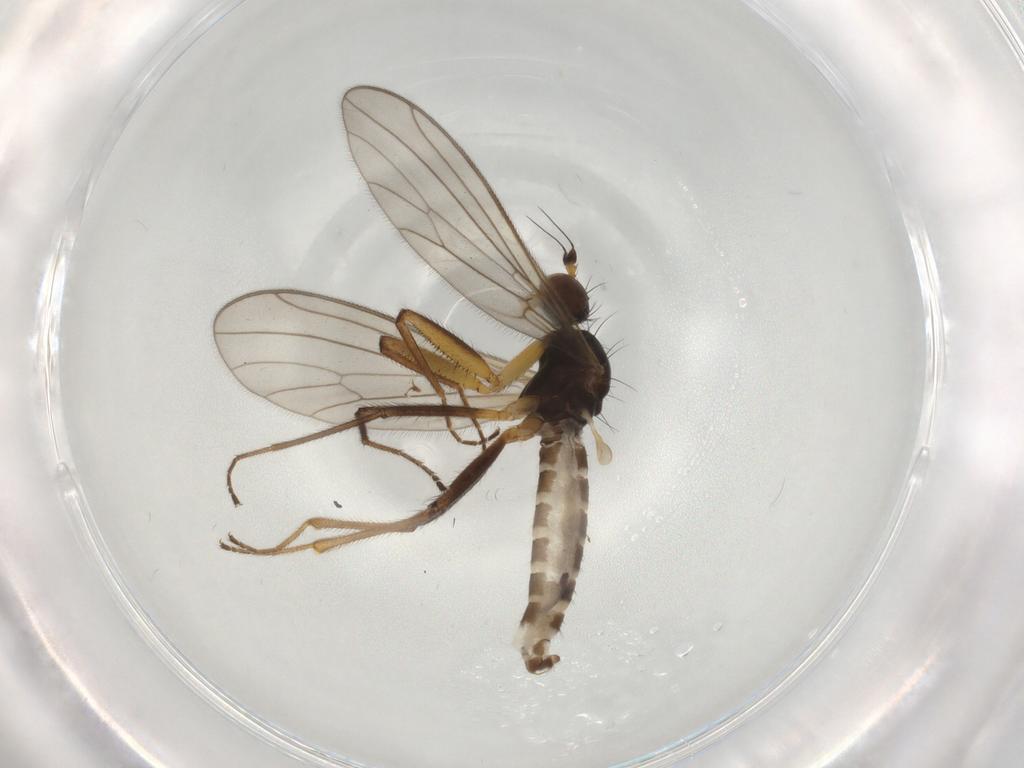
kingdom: Animalia
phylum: Arthropoda
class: Insecta
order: Diptera
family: Empididae
